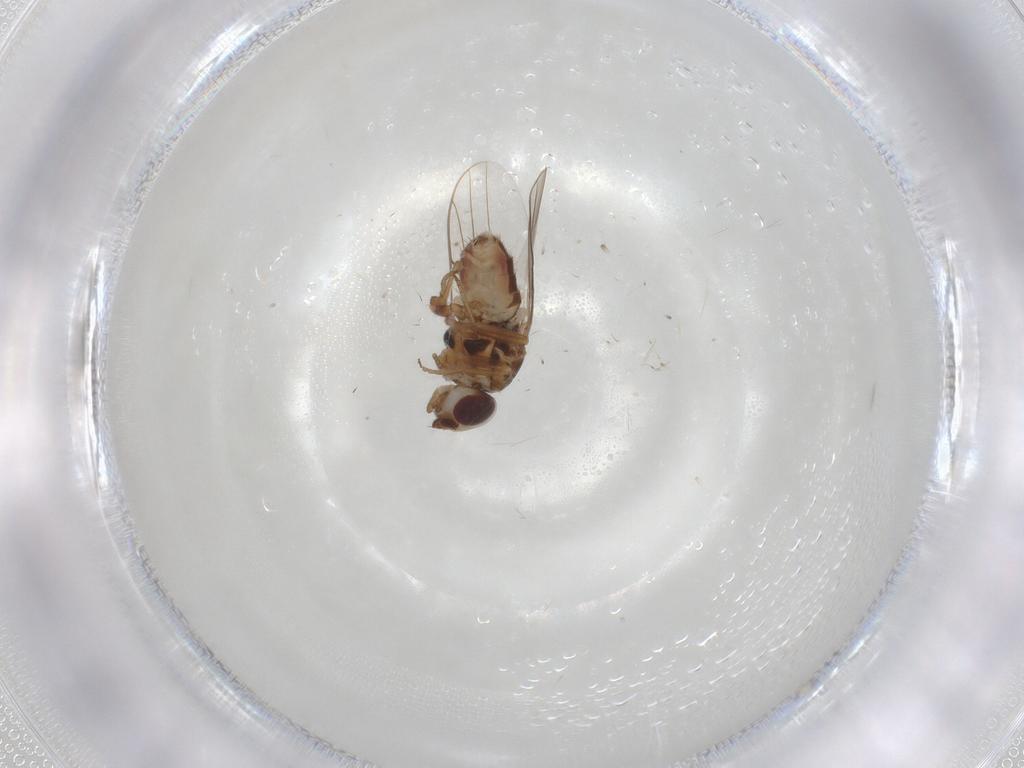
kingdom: Animalia
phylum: Arthropoda
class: Insecta
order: Diptera
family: Chloropidae
